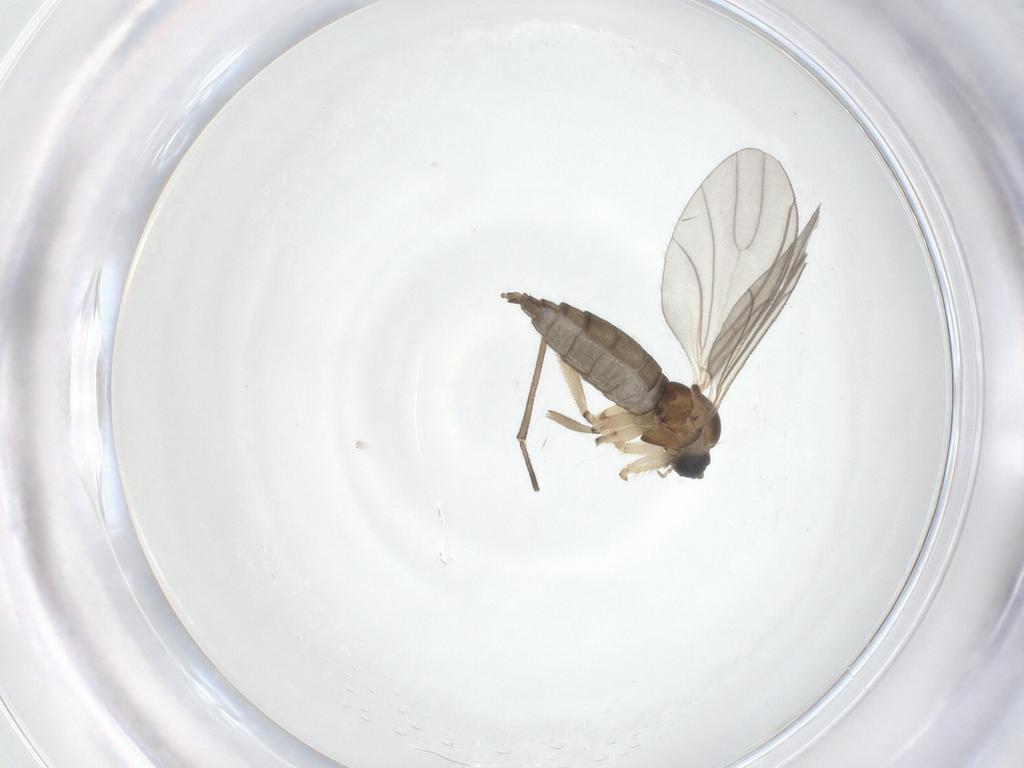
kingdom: Animalia
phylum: Arthropoda
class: Insecta
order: Diptera
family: Sciaridae
